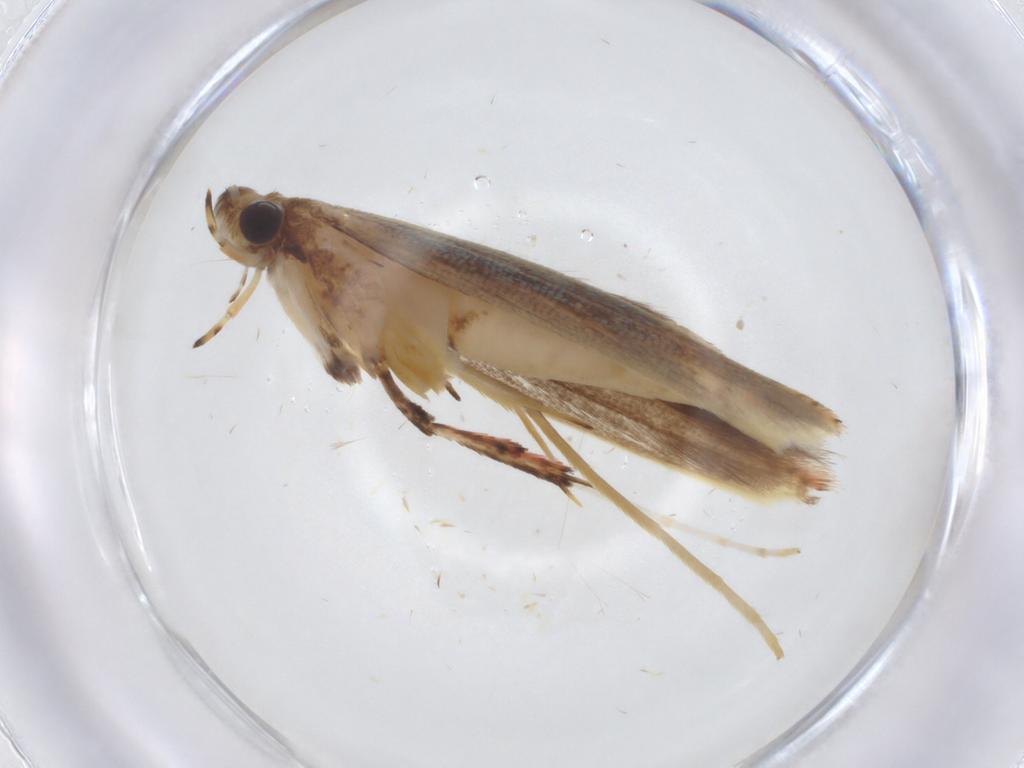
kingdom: Animalia
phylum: Arthropoda
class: Insecta
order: Lepidoptera
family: Gracillariidae
